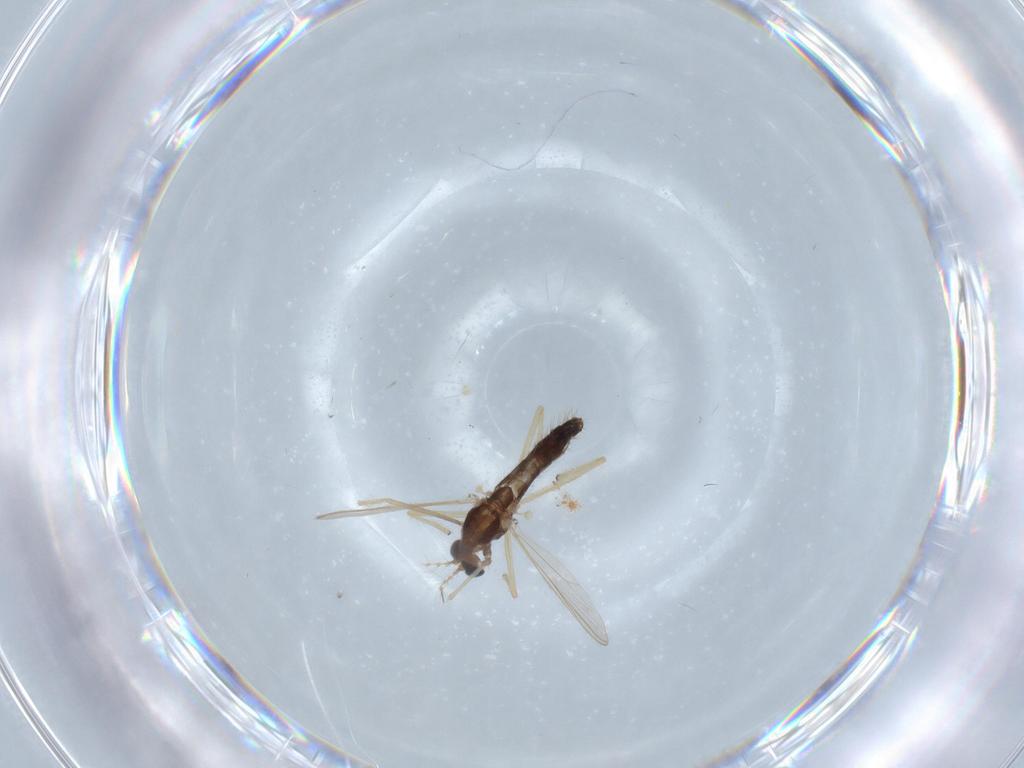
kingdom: Animalia
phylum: Arthropoda
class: Insecta
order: Diptera
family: Chironomidae
